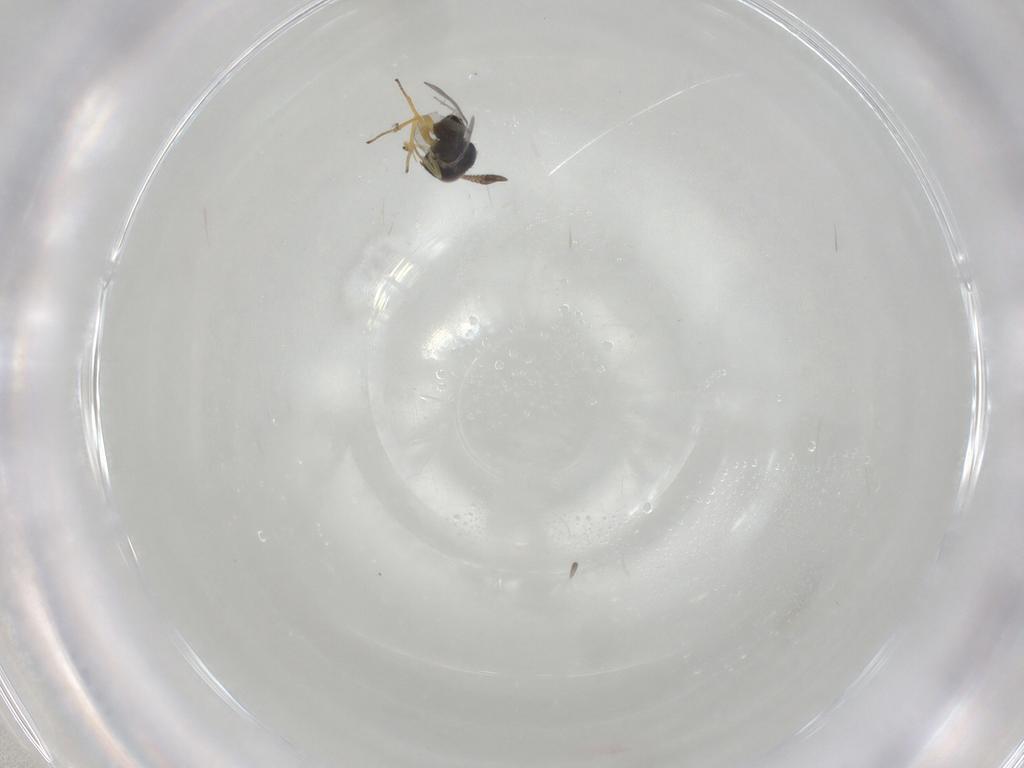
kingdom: Animalia
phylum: Arthropoda
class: Insecta
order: Hymenoptera
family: Encyrtidae
